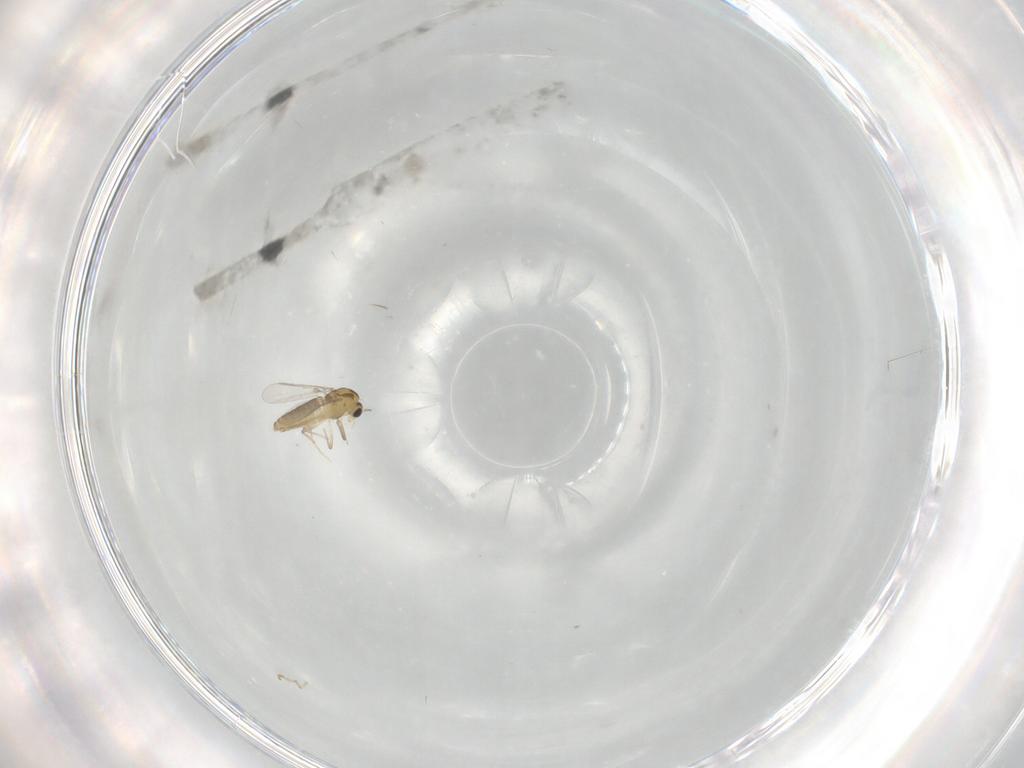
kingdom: Animalia
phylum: Arthropoda
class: Insecta
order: Diptera
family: Chironomidae
